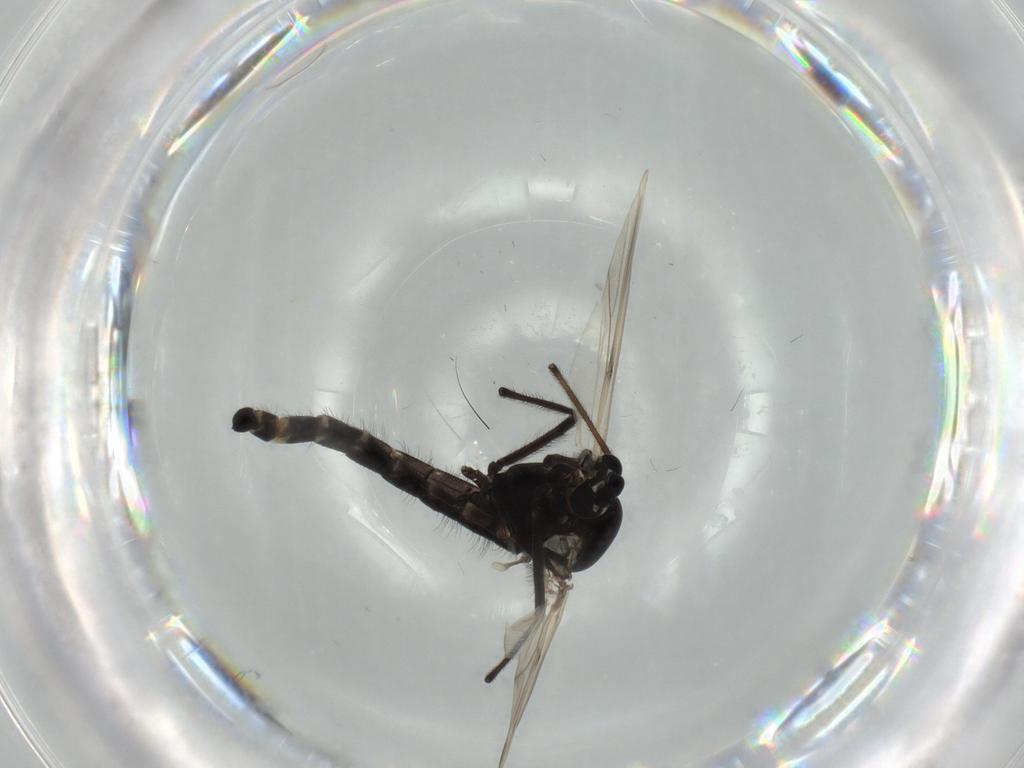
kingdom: Animalia
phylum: Arthropoda
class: Insecta
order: Diptera
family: Chironomidae
